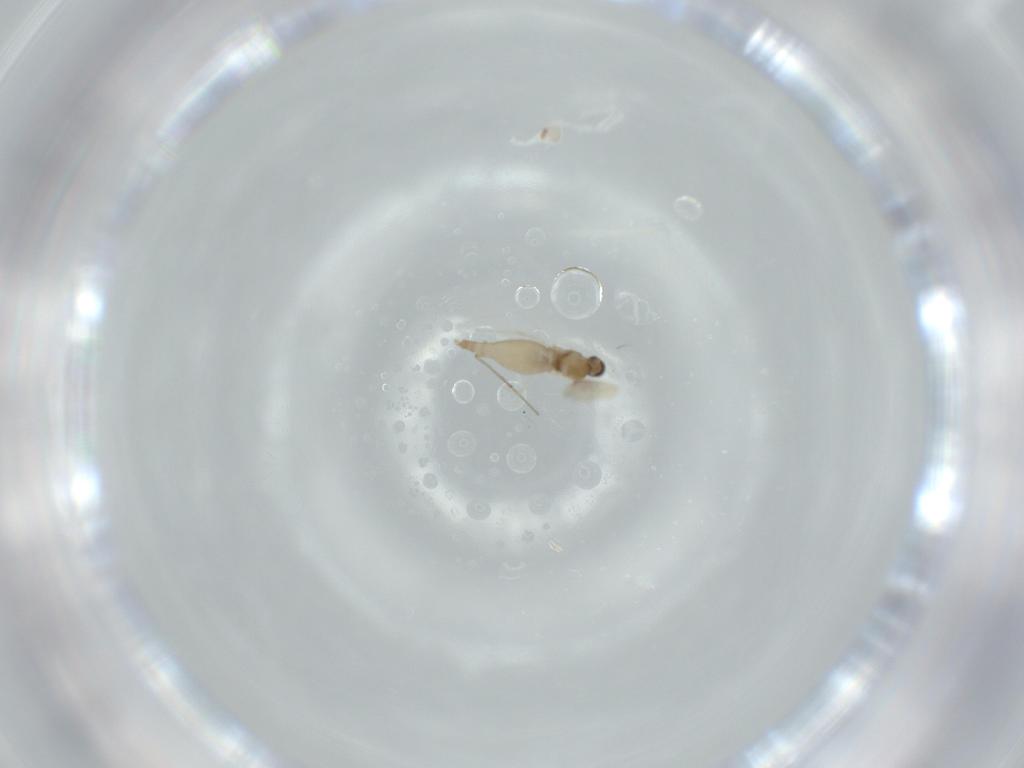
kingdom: Animalia
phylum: Arthropoda
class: Insecta
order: Diptera
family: Cecidomyiidae
